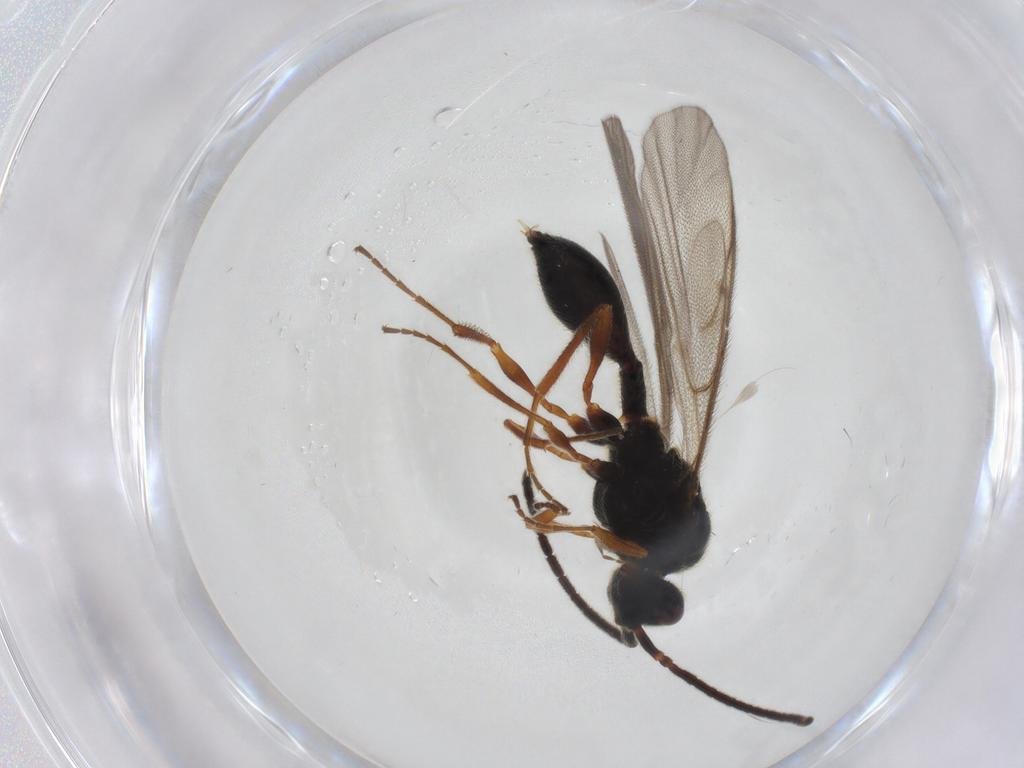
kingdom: Animalia
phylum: Arthropoda
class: Insecta
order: Hymenoptera
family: Diapriidae
